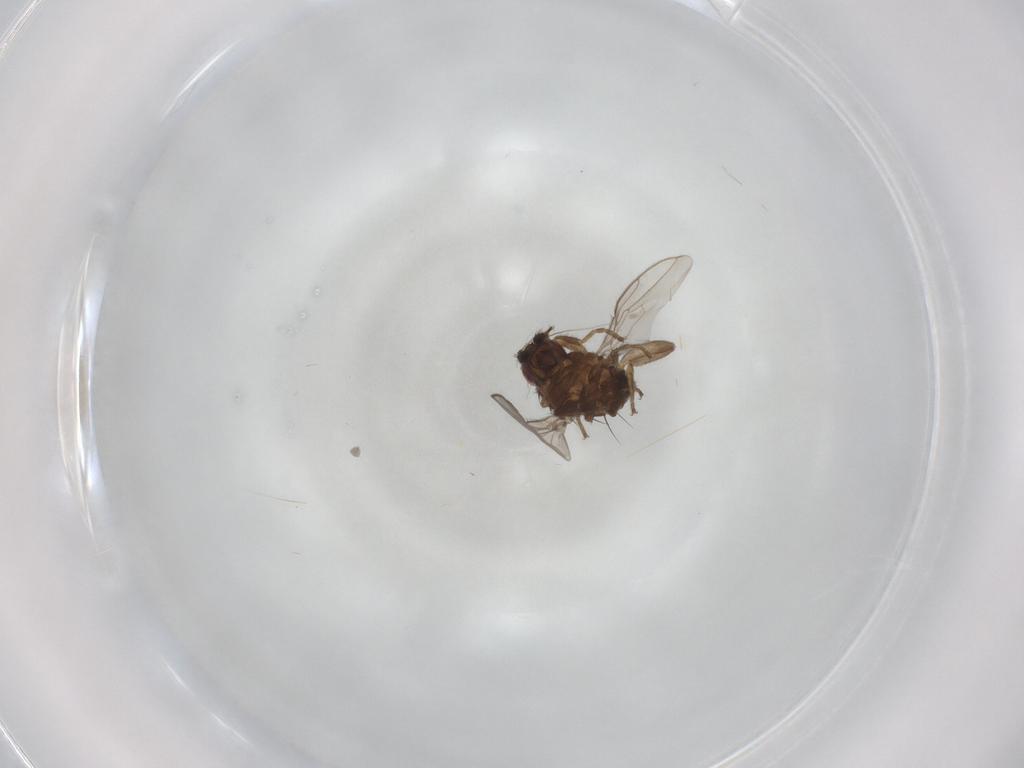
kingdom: Animalia
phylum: Arthropoda
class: Insecta
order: Diptera
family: Sphaeroceridae
